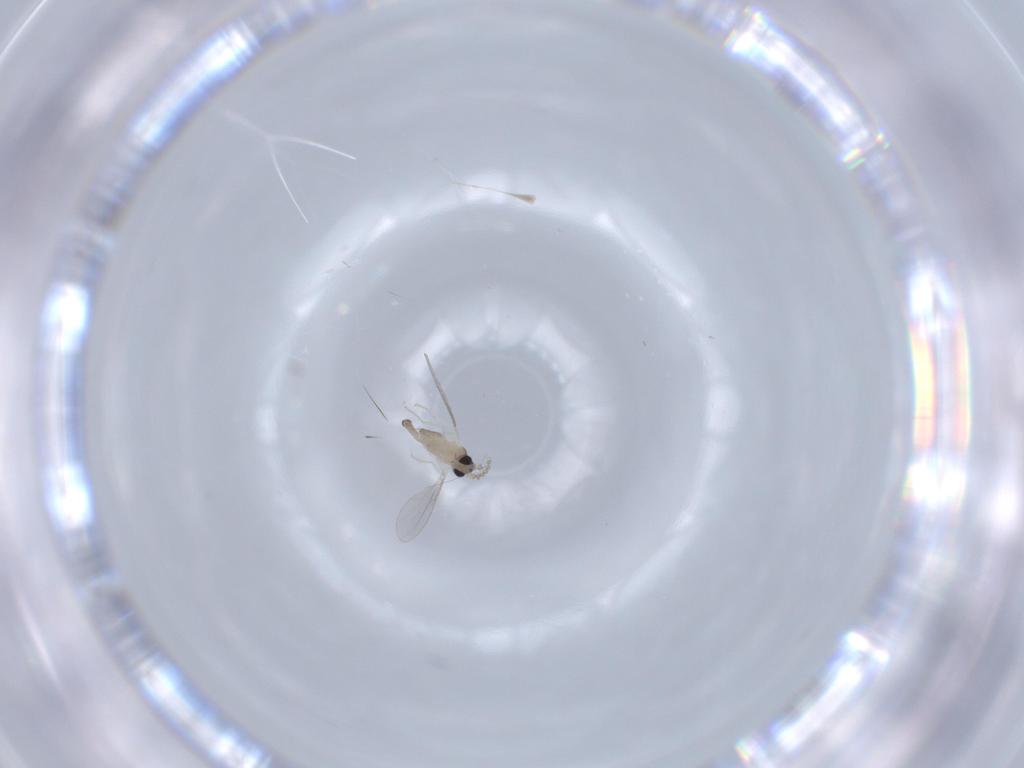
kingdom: Animalia
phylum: Arthropoda
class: Insecta
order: Diptera
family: Cecidomyiidae
